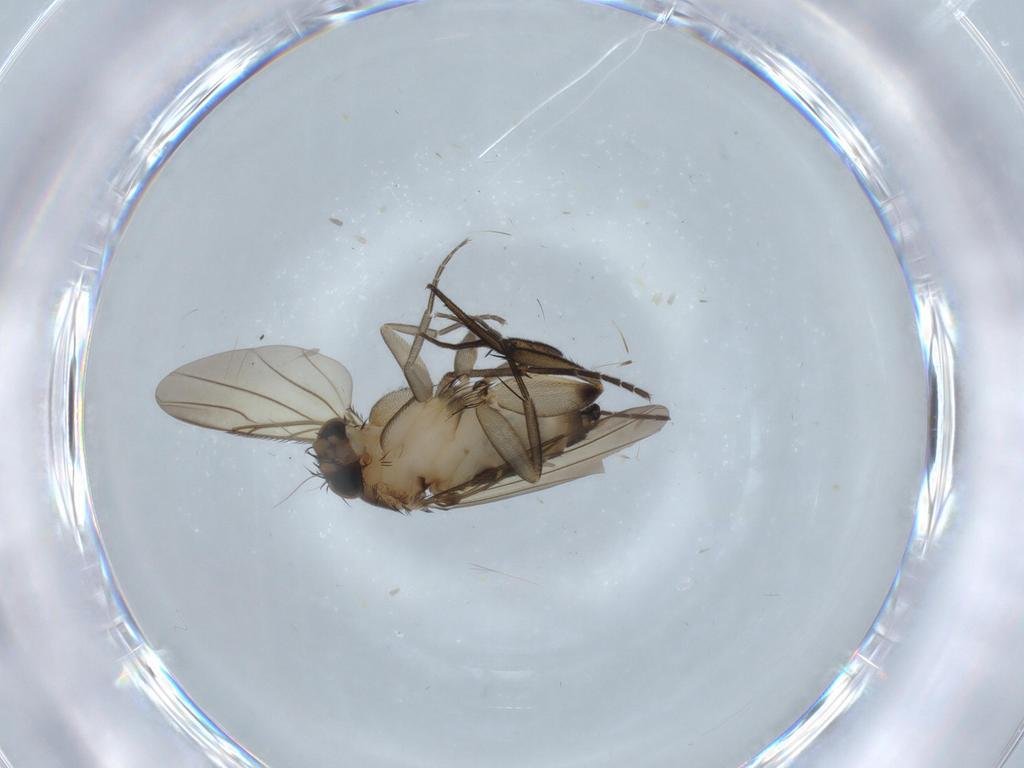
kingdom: Animalia
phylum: Arthropoda
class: Insecta
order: Diptera
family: Phoridae
